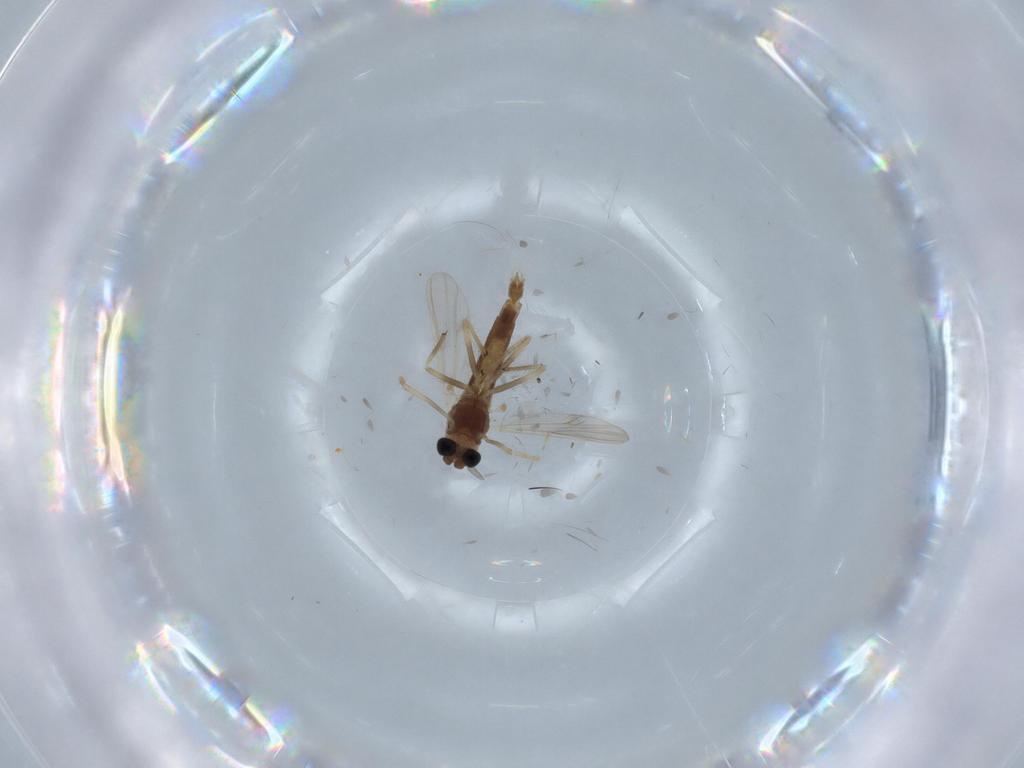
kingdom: Animalia
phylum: Arthropoda
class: Insecta
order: Diptera
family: Chironomidae
